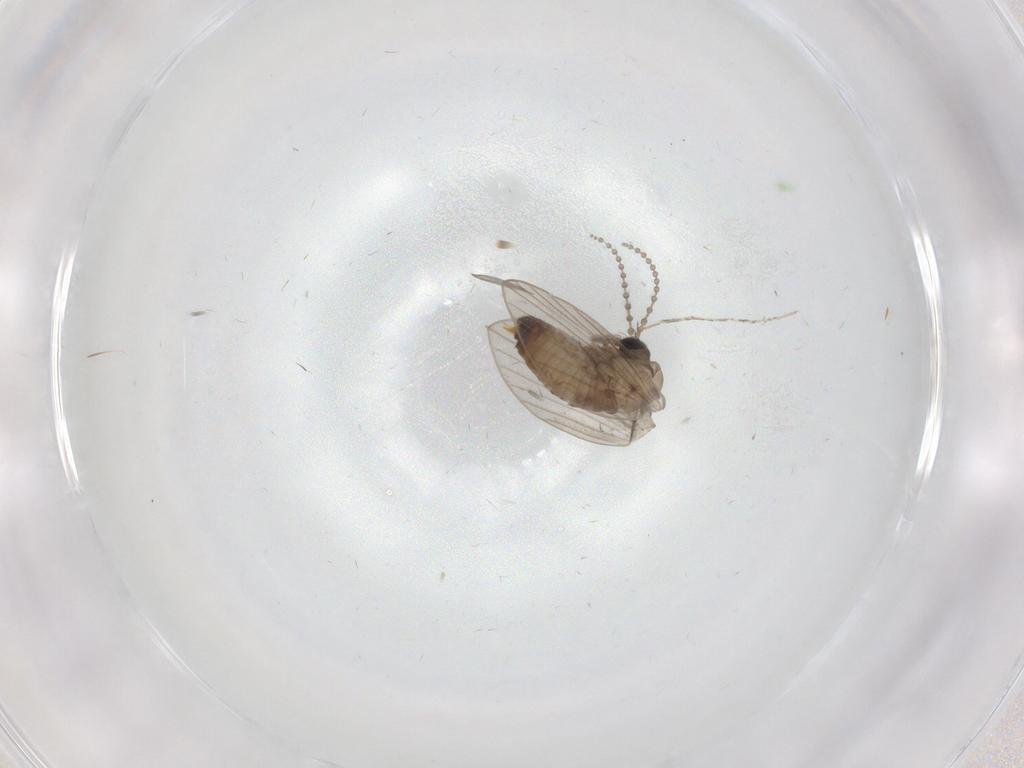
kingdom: Animalia
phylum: Arthropoda
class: Insecta
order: Diptera
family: Psychodidae
